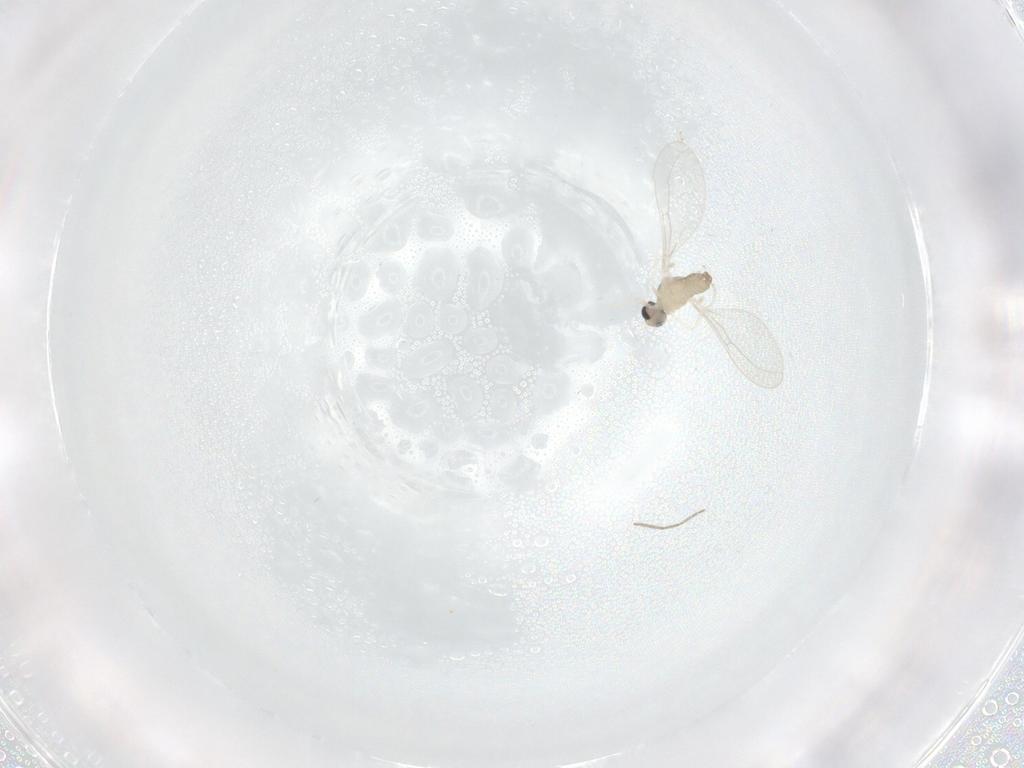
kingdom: Animalia
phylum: Arthropoda
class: Insecta
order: Diptera
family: Cecidomyiidae
